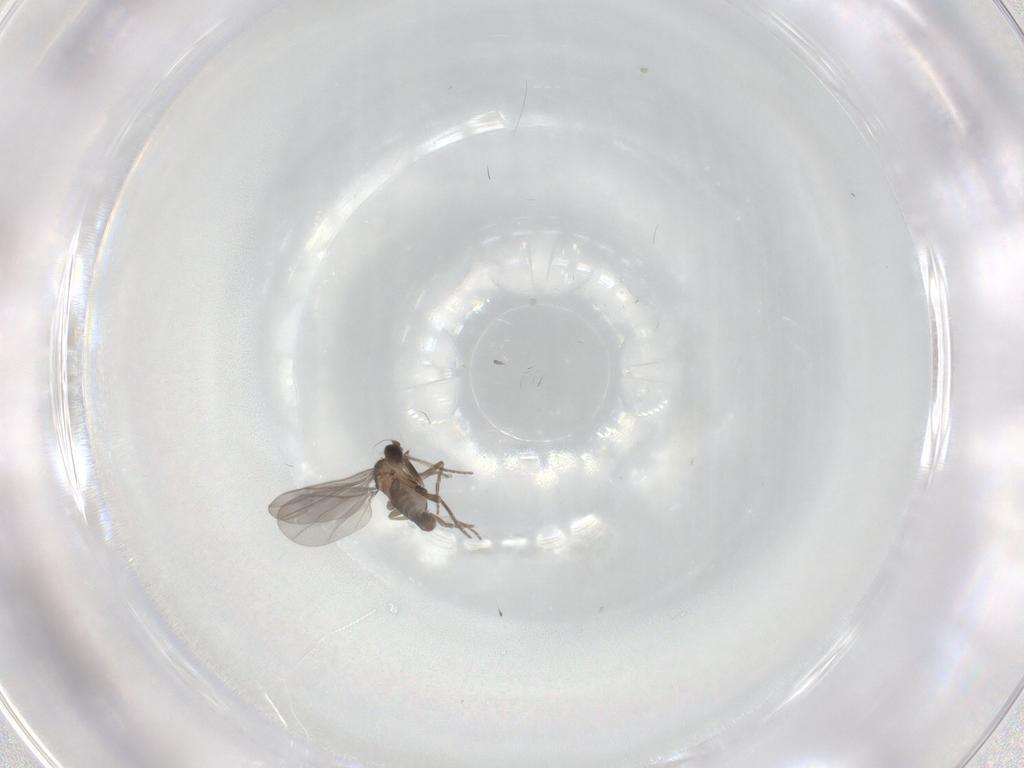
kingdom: Animalia
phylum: Arthropoda
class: Insecta
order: Diptera
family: Phoridae
